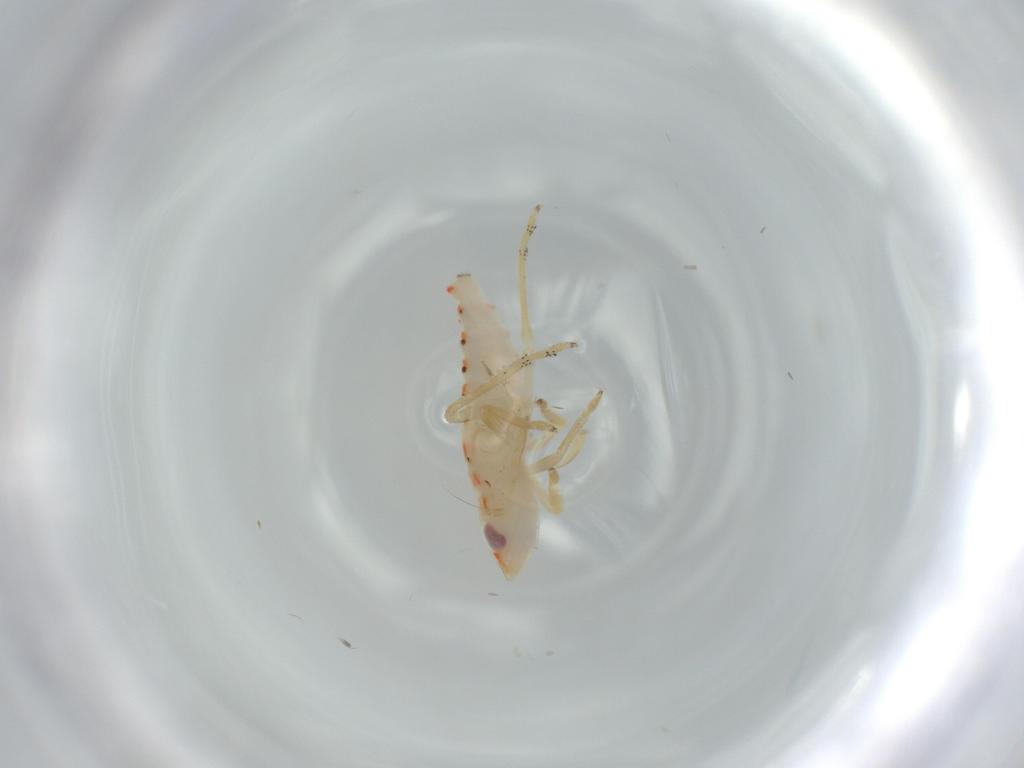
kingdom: Animalia
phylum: Arthropoda
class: Insecta
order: Hemiptera
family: Tropiduchidae
